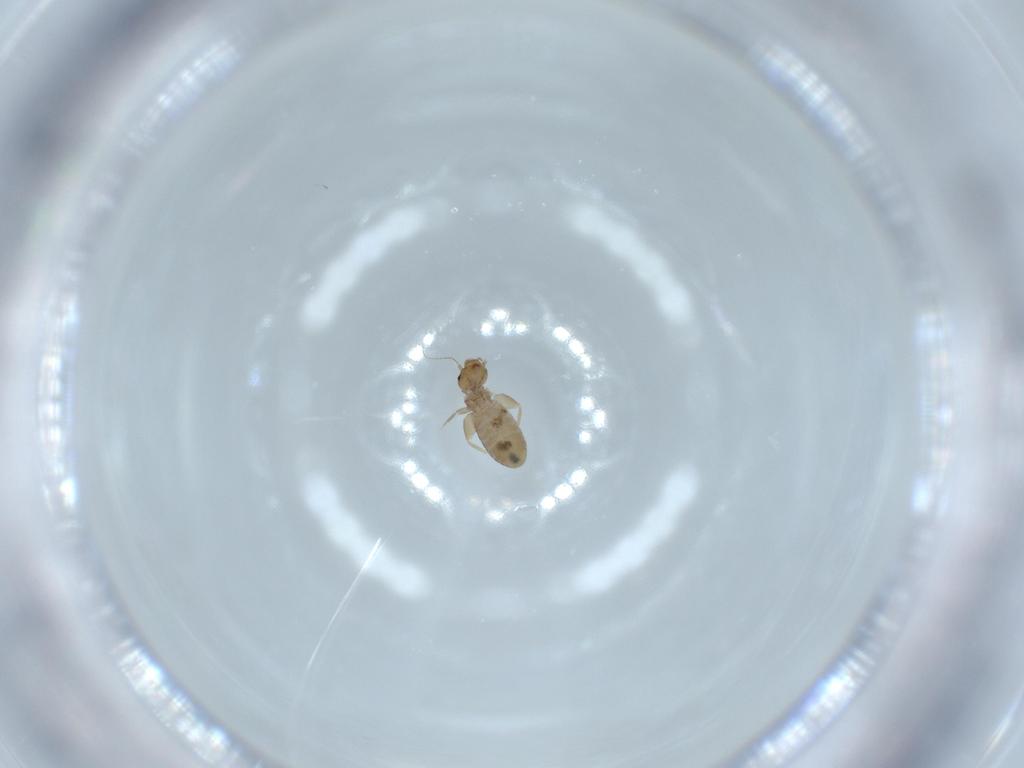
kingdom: Animalia
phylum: Arthropoda
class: Insecta
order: Psocodea
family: Liposcelididae
